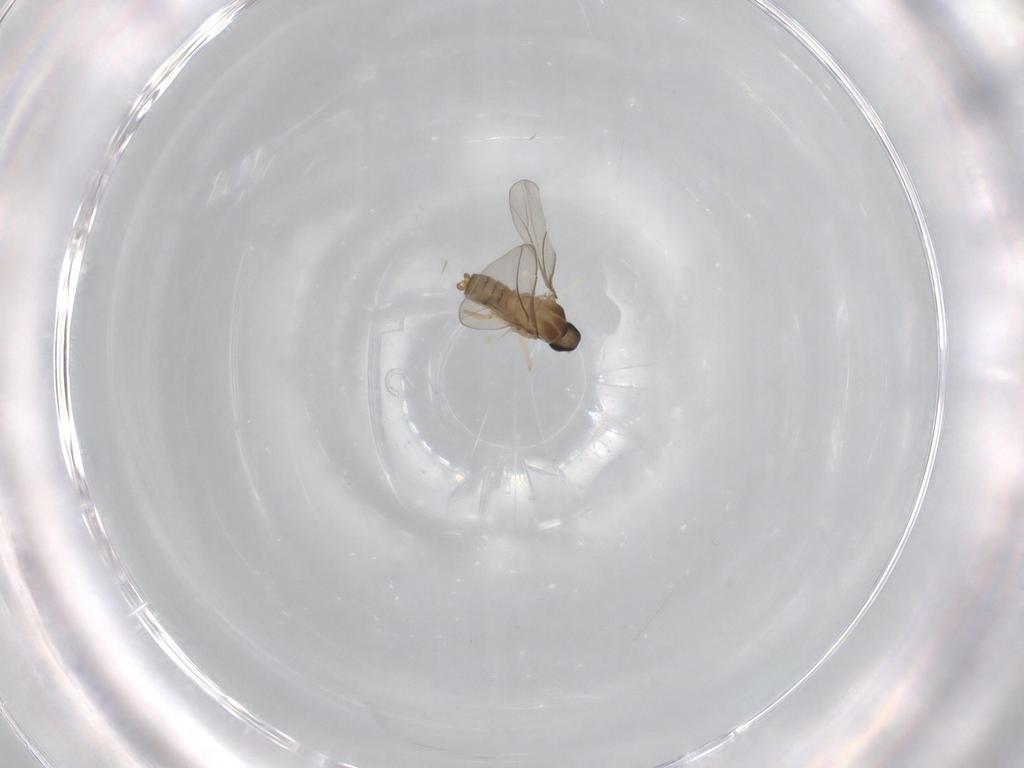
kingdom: Animalia
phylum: Arthropoda
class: Insecta
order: Diptera
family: Cecidomyiidae
